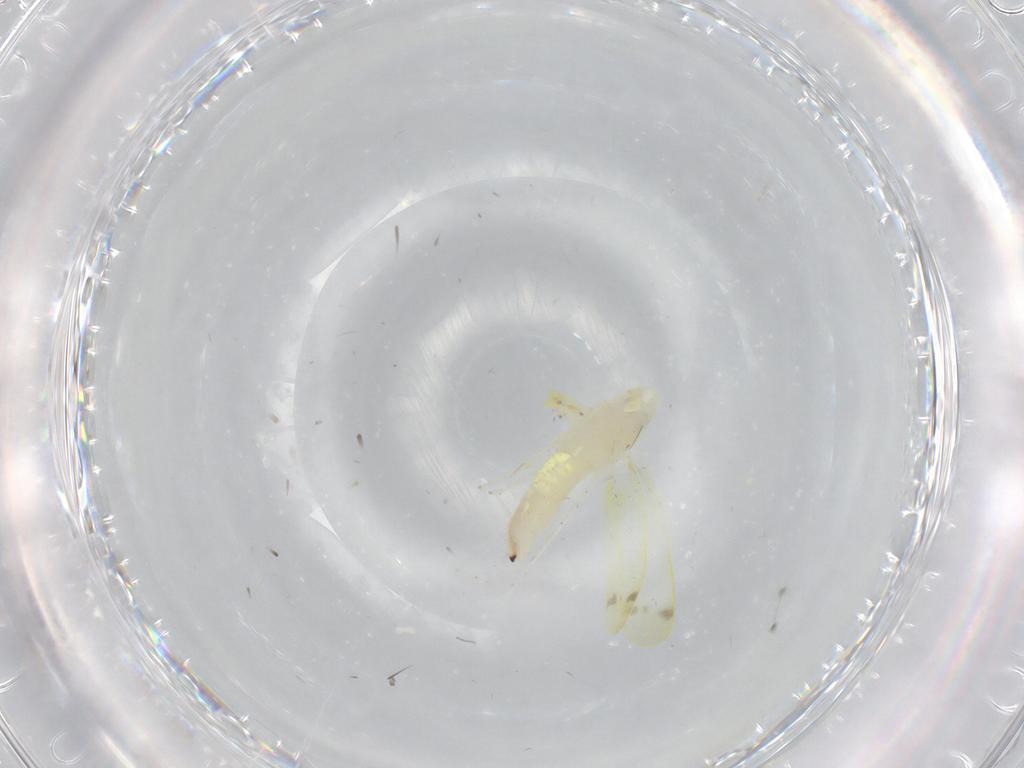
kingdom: Animalia
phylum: Arthropoda
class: Insecta
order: Hemiptera
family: Cicadellidae
